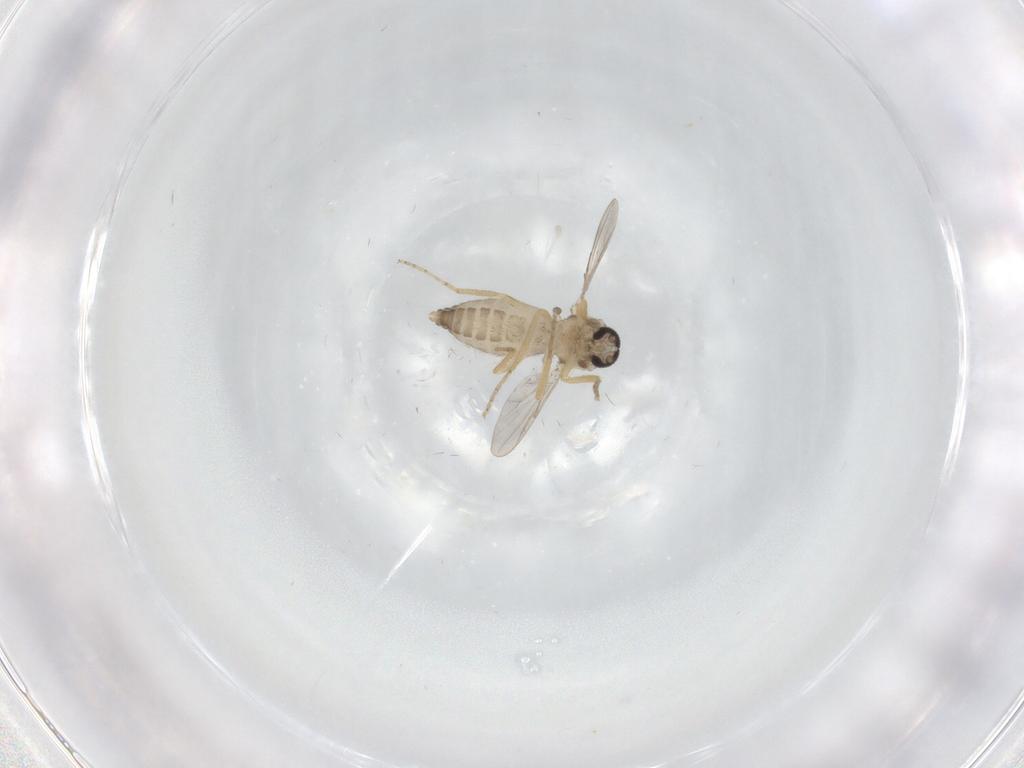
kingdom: Animalia
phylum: Arthropoda
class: Insecta
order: Diptera
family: Ceratopogonidae
